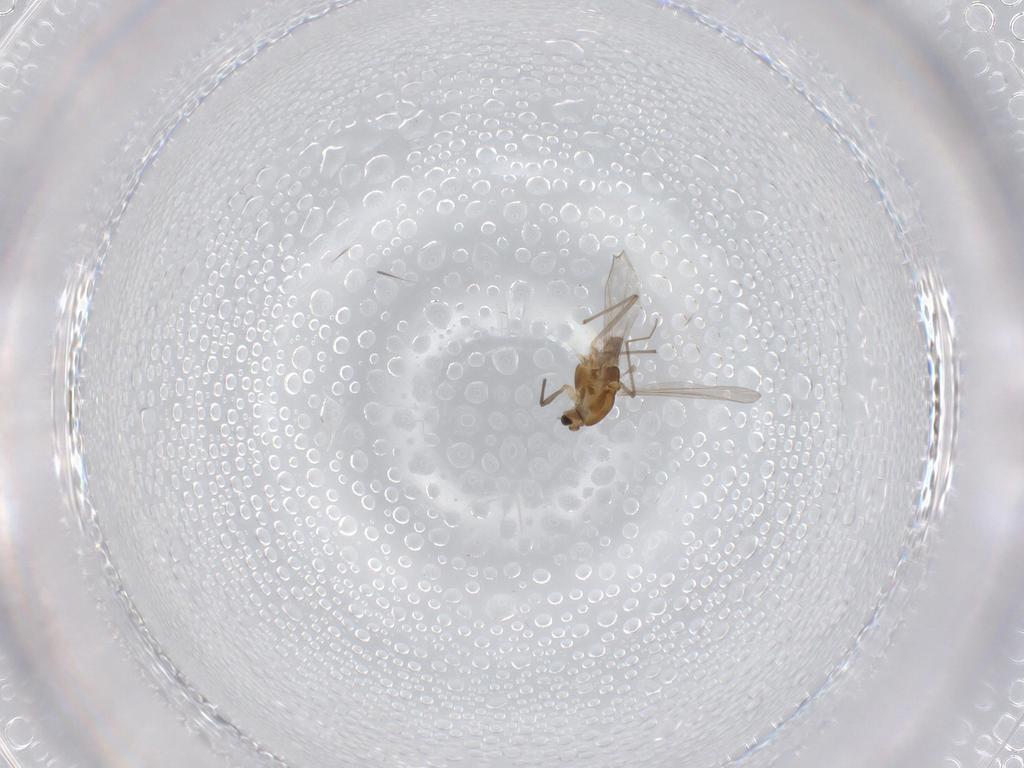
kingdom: Animalia
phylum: Arthropoda
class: Insecta
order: Diptera
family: Chironomidae
